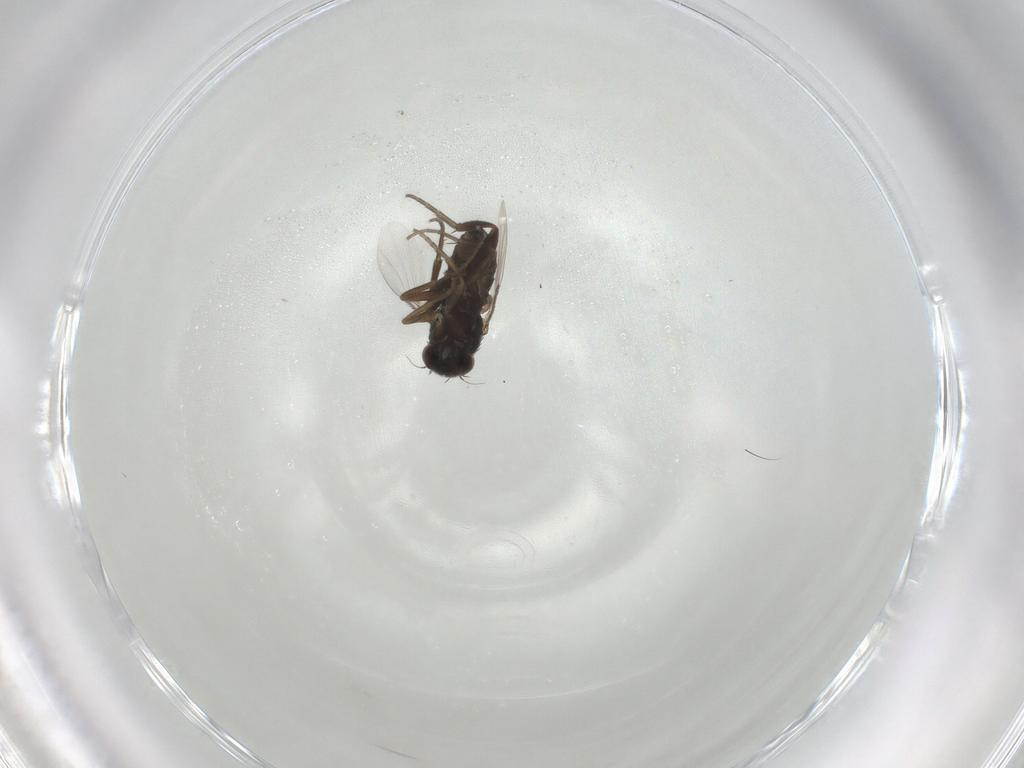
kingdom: Animalia
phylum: Arthropoda
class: Insecta
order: Diptera
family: Phoridae
